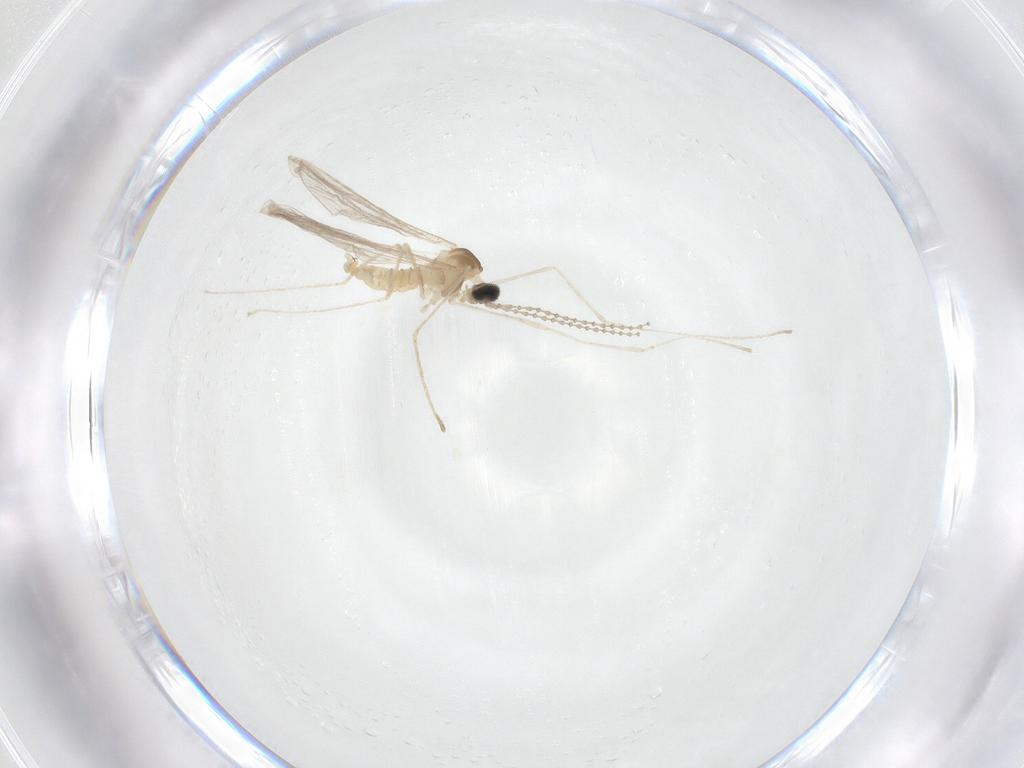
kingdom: Animalia
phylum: Arthropoda
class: Insecta
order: Diptera
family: Cecidomyiidae
